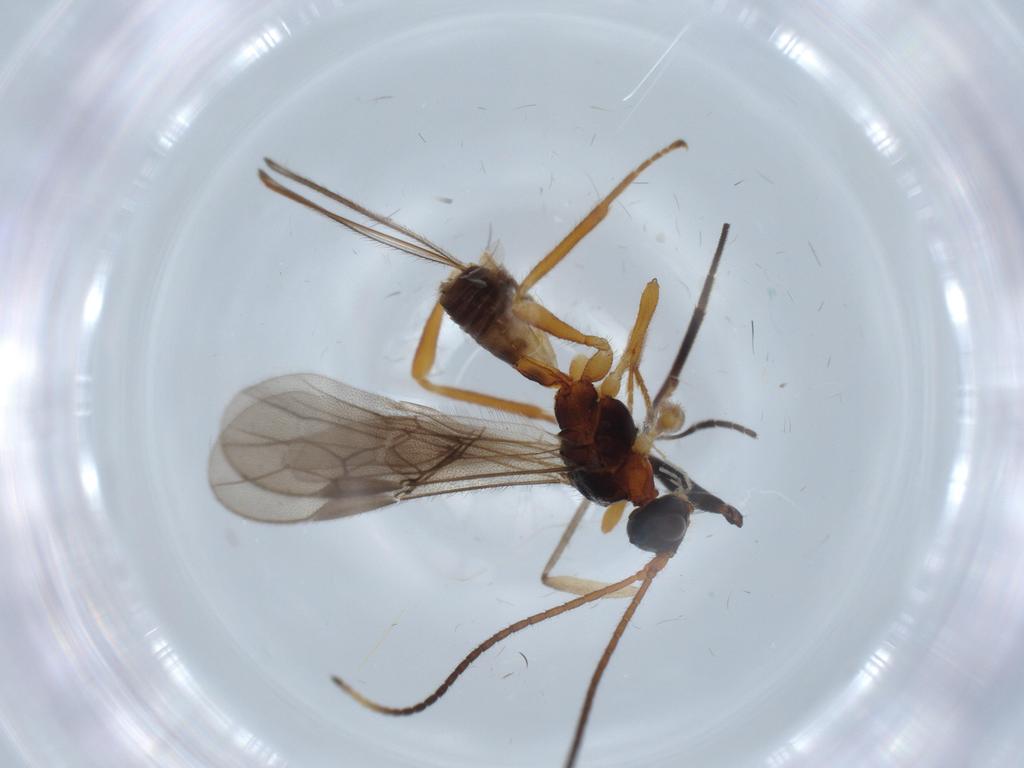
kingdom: Animalia
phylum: Arthropoda
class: Insecta
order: Hymenoptera
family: Braconidae
